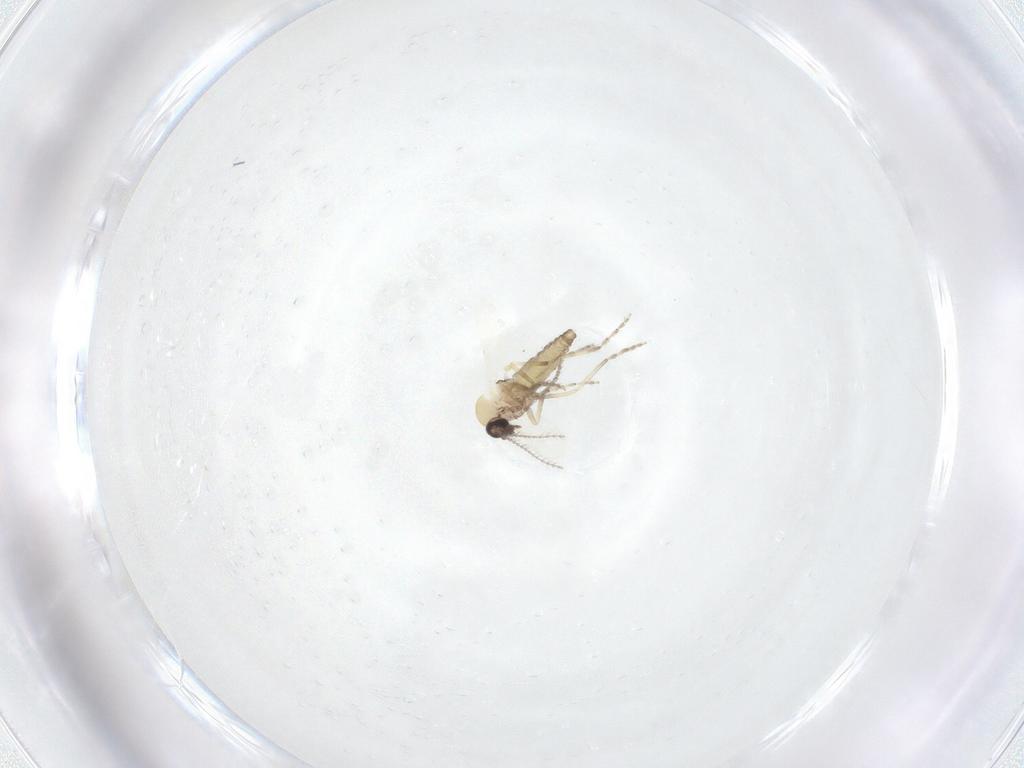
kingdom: Animalia
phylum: Arthropoda
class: Insecta
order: Diptera
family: Ceratopogonidae
